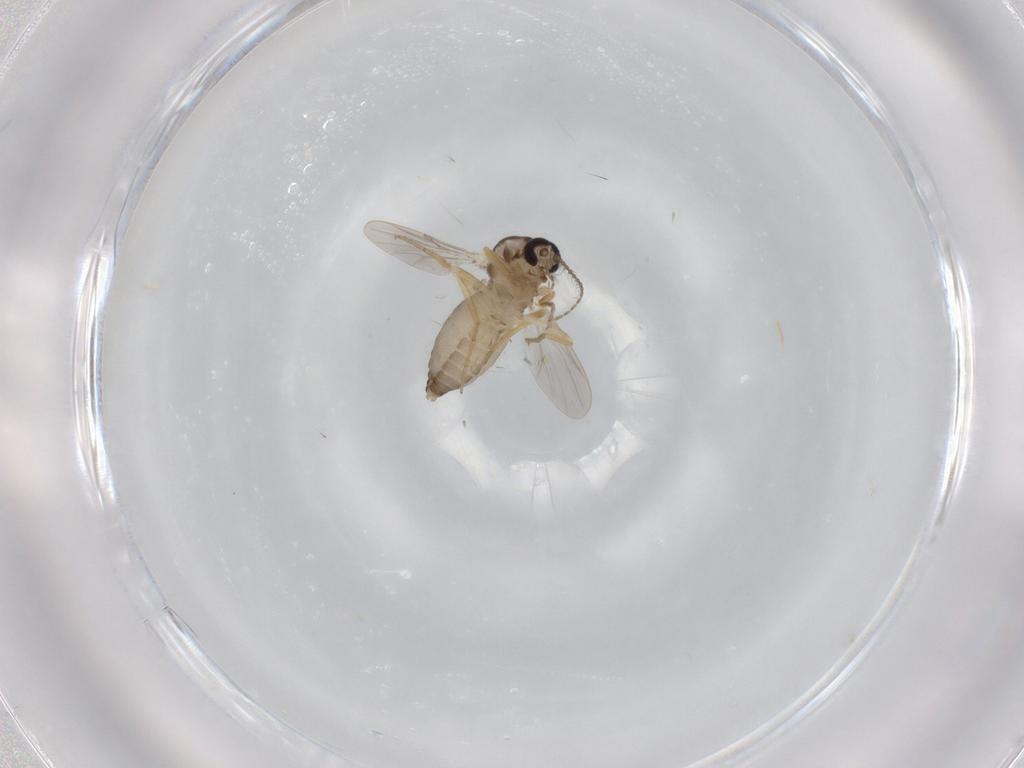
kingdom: Animalia
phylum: Arthropoda
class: Insecta
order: Diptera
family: Ceratopogonidae
